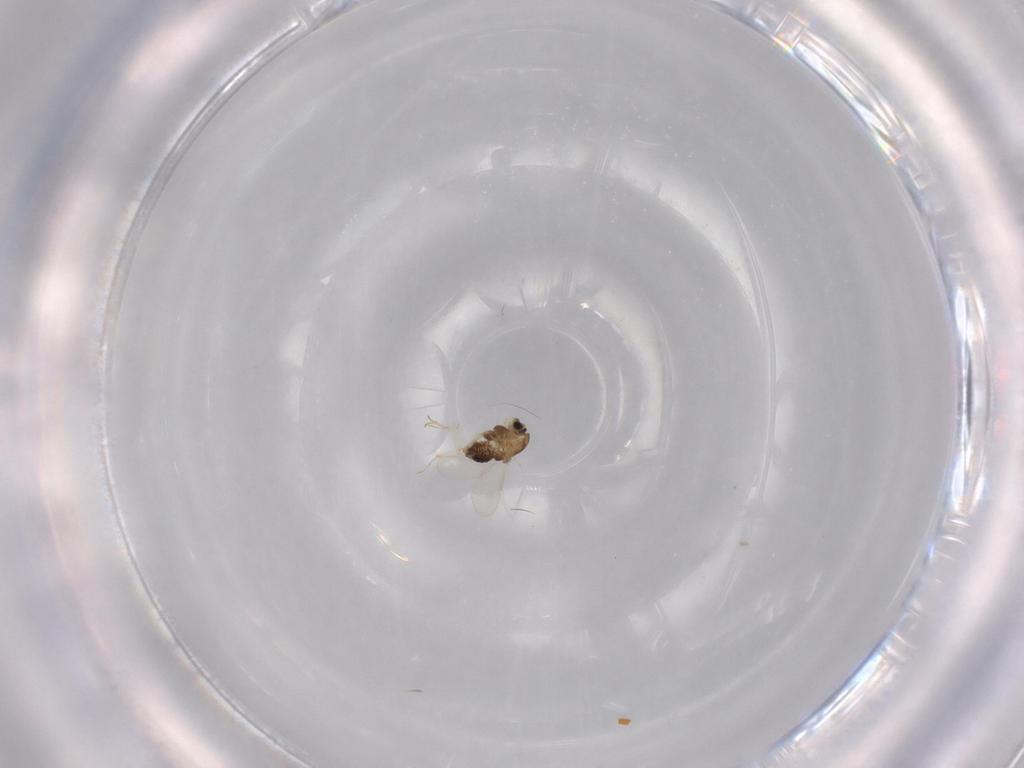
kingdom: Animalia
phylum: Arthropoda
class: Insecta
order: Diptera
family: Chironomidae
